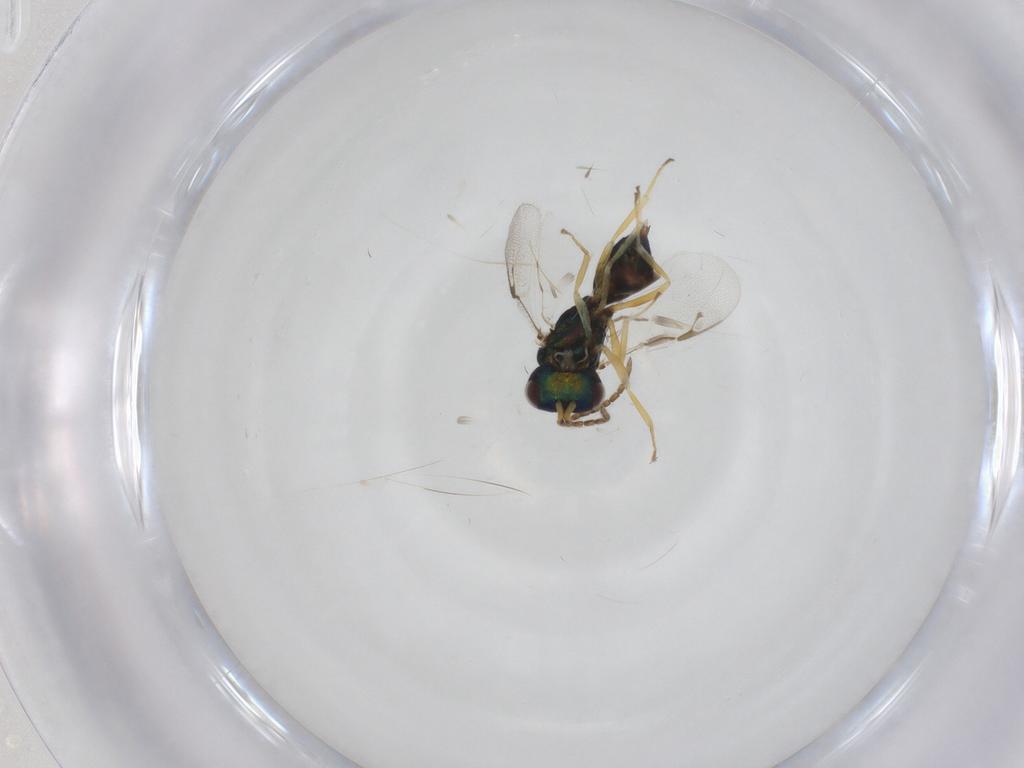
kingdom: Animalia
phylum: Arthropoda
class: Insecta
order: Hymenoptera
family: Pteromalidae
